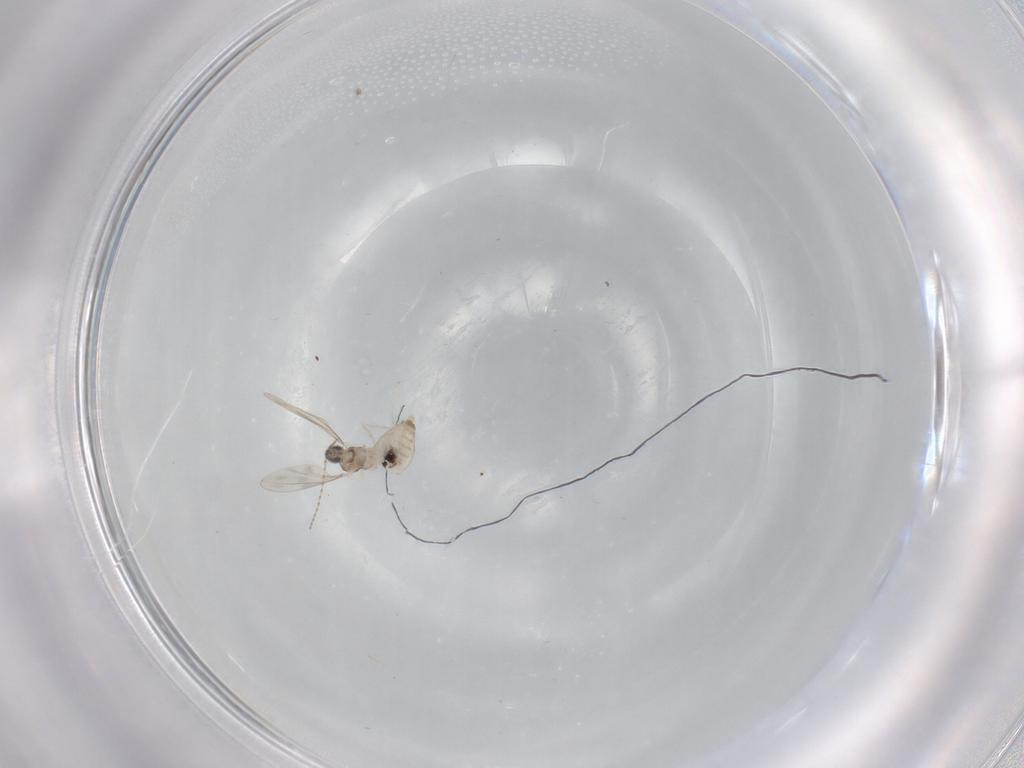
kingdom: Animalia
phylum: Arthropoda
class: Insecta
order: Diptera
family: Cecidomyiidae
